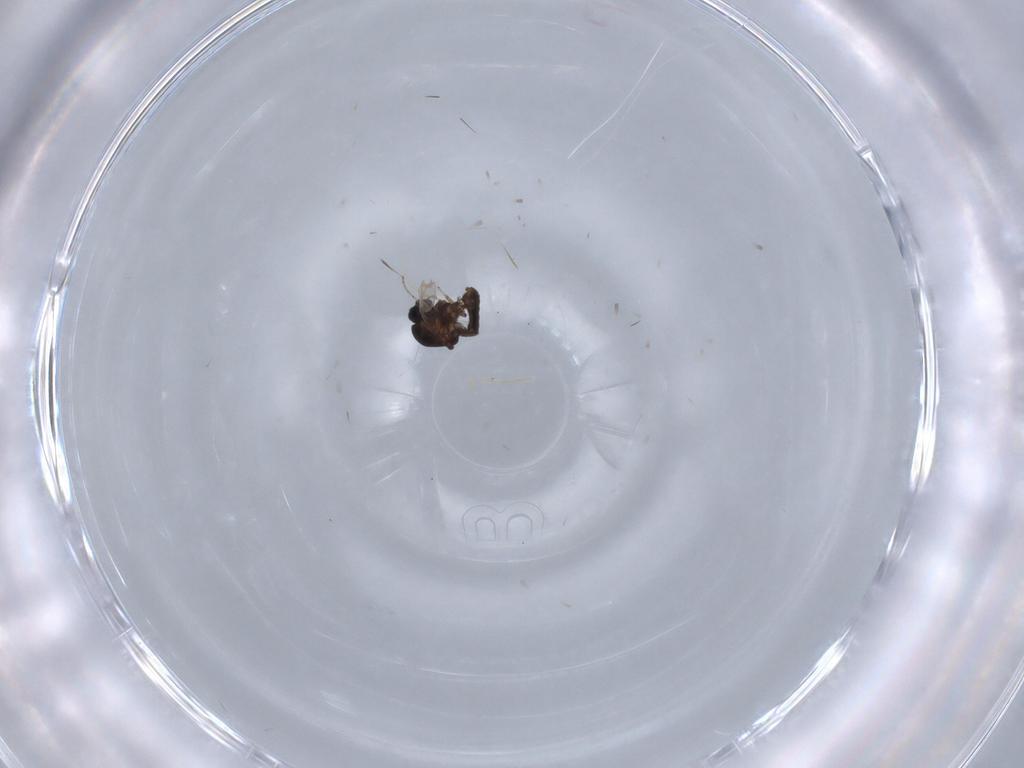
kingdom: Animalia
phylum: Arthropoda
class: Insecta
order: Diptera
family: Ceratopogonidae
